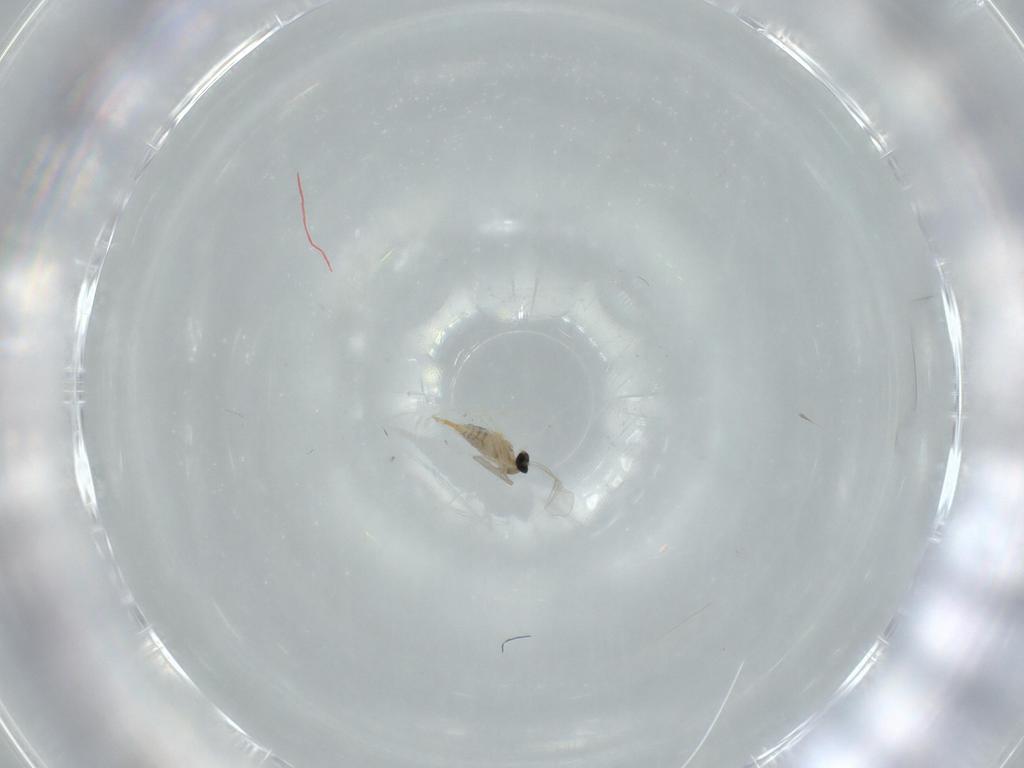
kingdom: Animalia
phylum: Arthropoda
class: Insecta
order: Diptera
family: Cecidomyiidae
